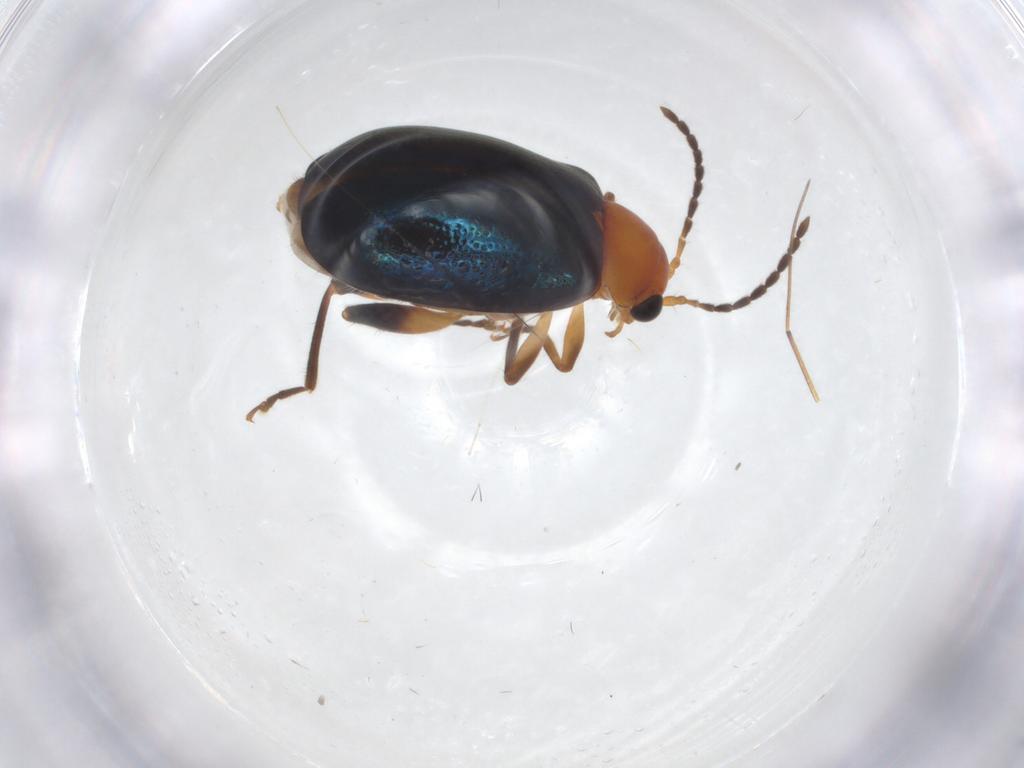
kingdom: Animalia
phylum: Arthropoda
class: Insecta
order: Coleoptera
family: Chrysomelidae
